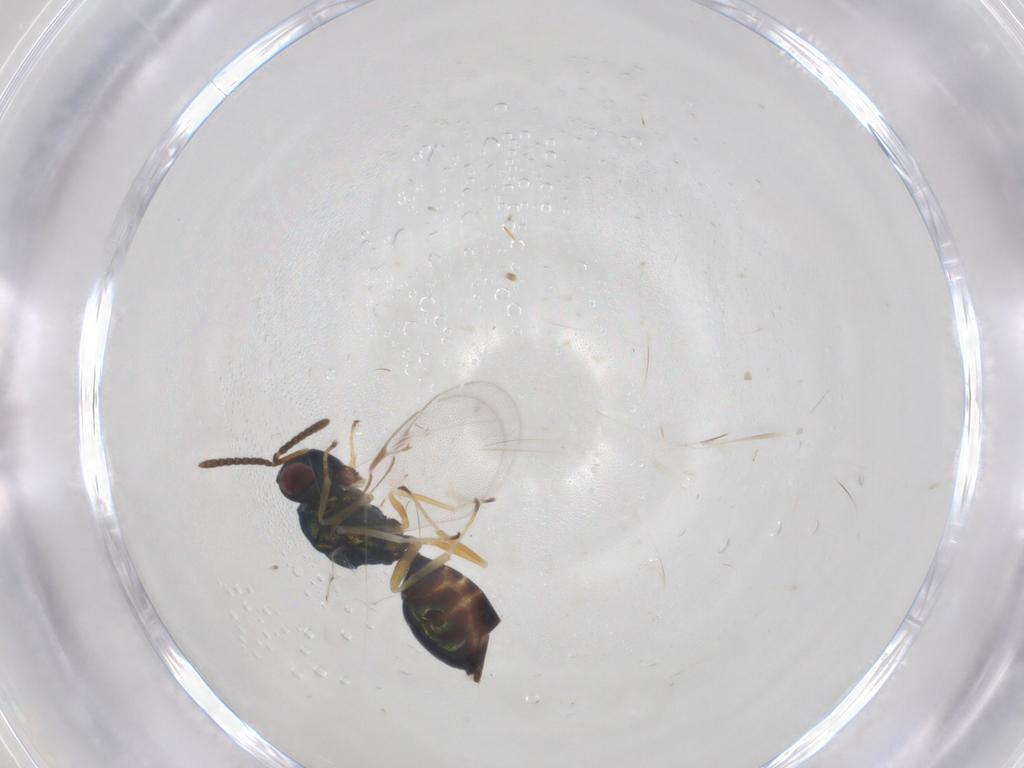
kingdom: Animalia
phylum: Arthropoda
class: Insecta
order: Hymenoptera
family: Pteromalidae
